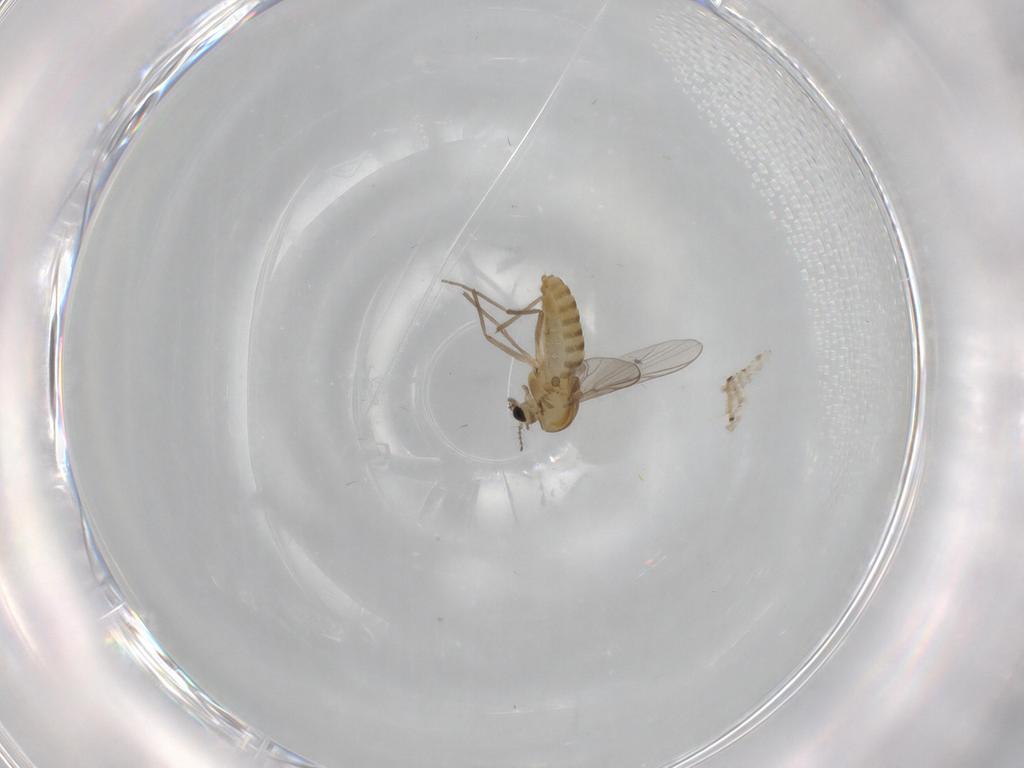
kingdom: Animalia
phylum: Arthropoda
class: Insecta
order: Diptera
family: Chironomidae
